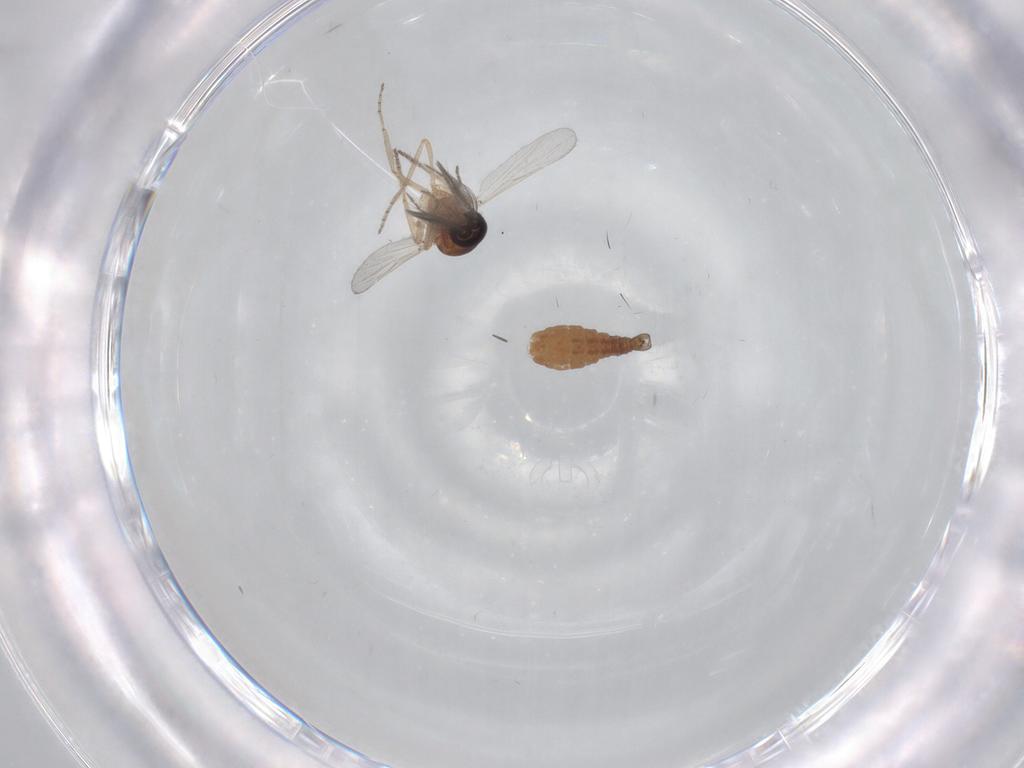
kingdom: Animalia
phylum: Arthropoda
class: Insecta
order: Diptera
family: Ceratopogonidae
